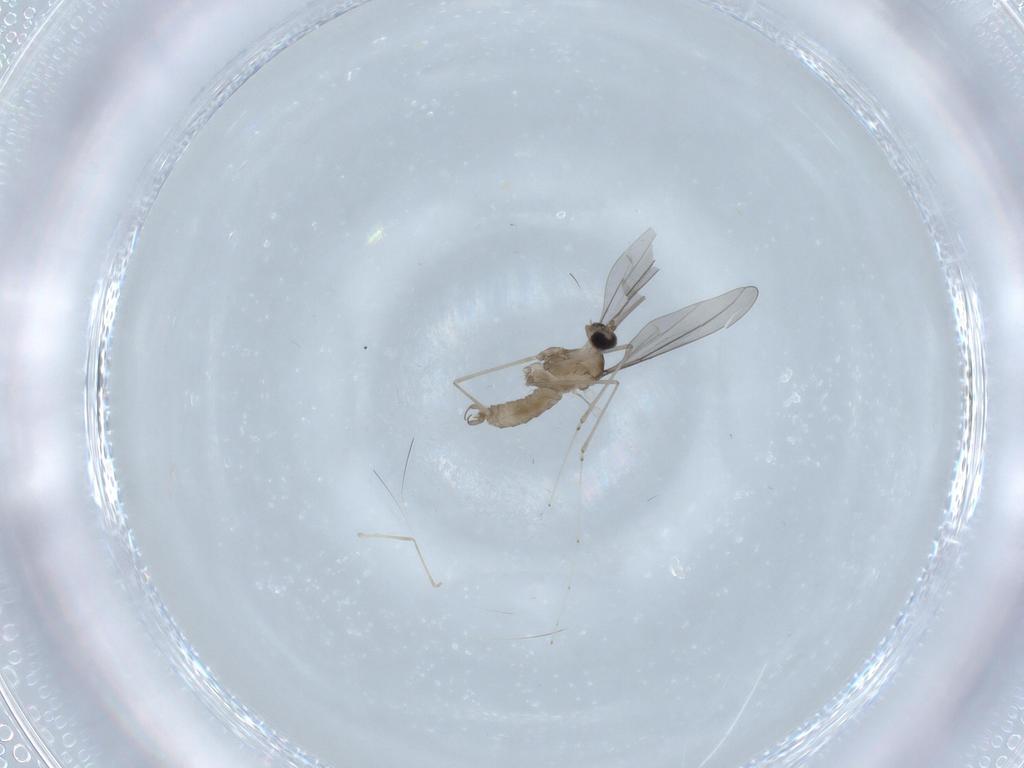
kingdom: Animalia
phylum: Arthropoda
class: Insecta
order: Diptera
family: Cecidomyiidae
